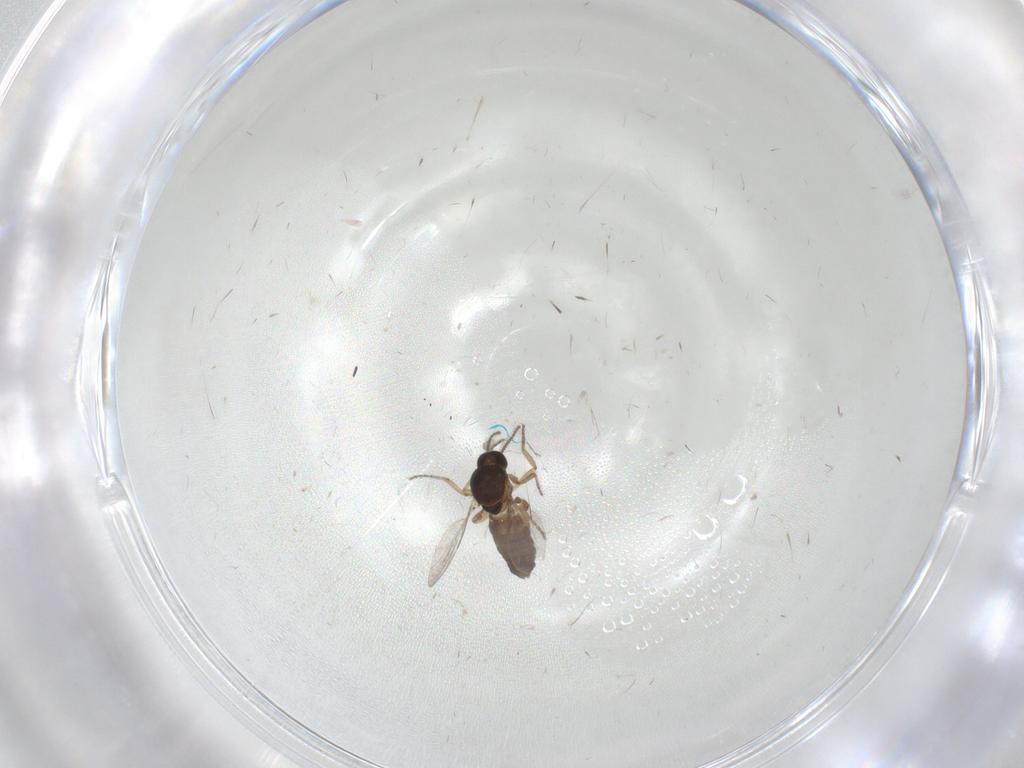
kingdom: Animalia
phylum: Arthropoda
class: Insecta
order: Diptera
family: Ceratopogonidae
